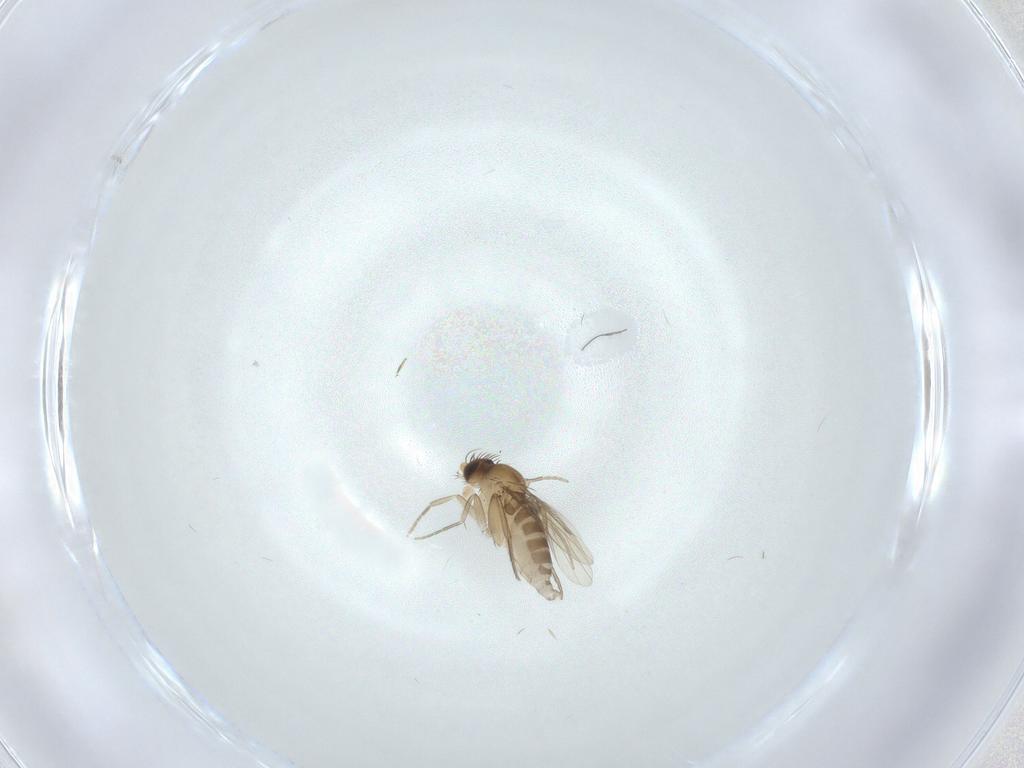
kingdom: Animalia
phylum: Arthropoda
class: Insecta
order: Diptera
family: Phoridae
